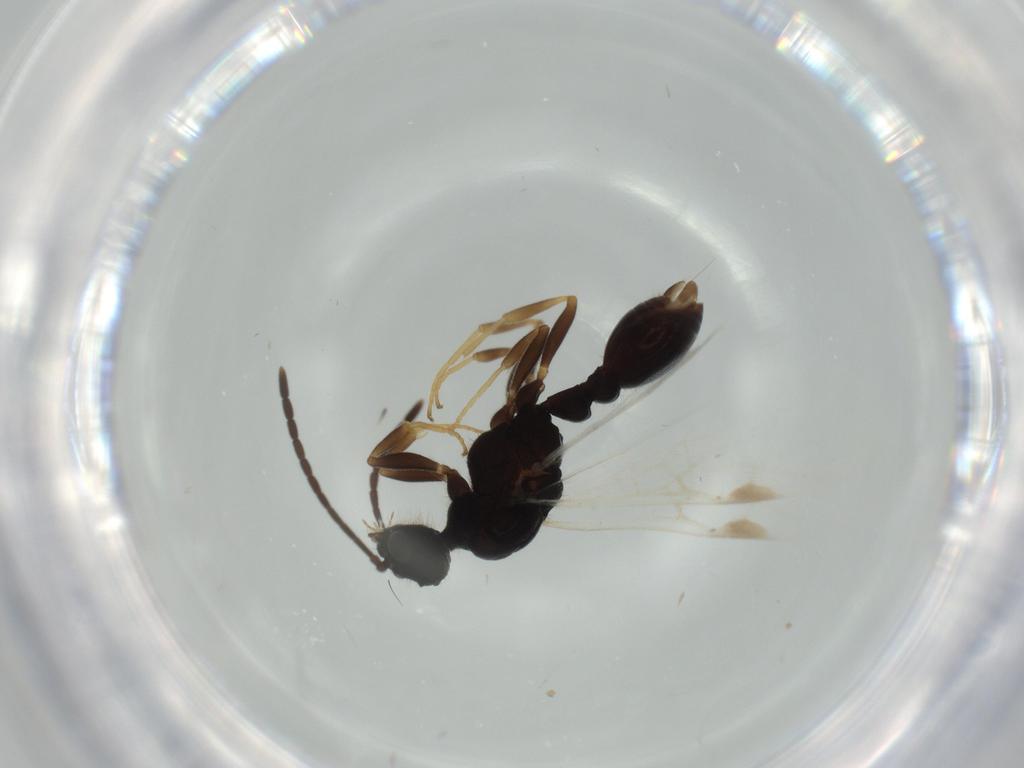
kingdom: Animalia
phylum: Arthropoda
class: Insecta
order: Hymenoptera
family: Formicidae
